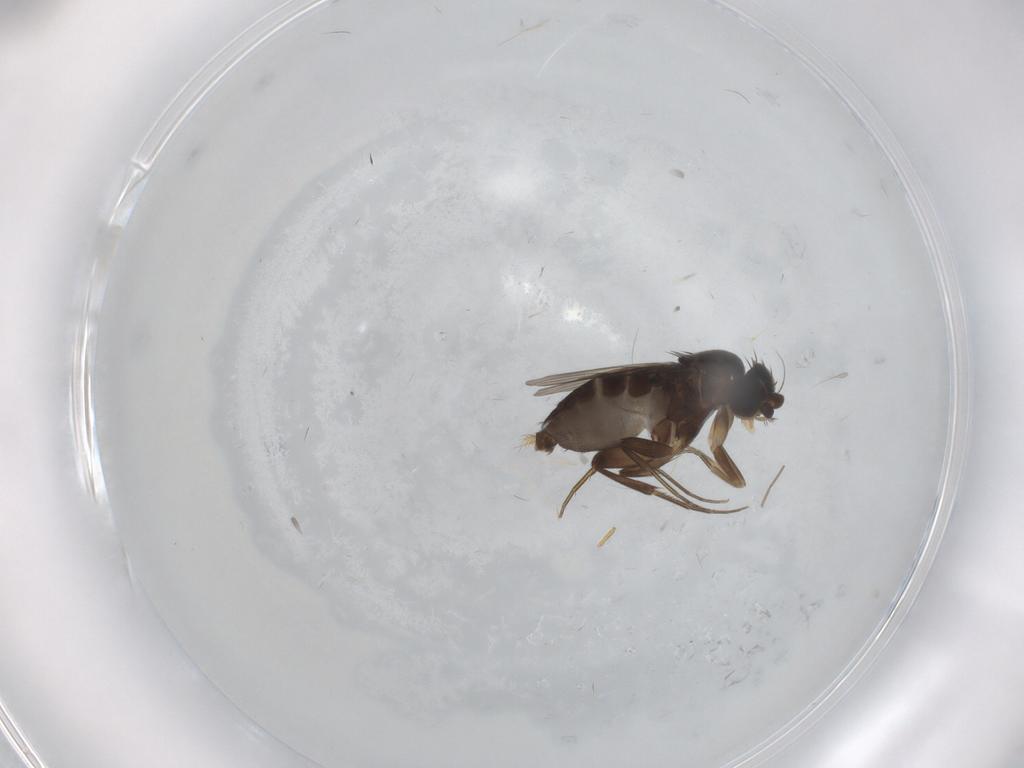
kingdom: Animalia
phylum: Arthropoda
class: Insecta
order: Diptera
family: Phoridae
